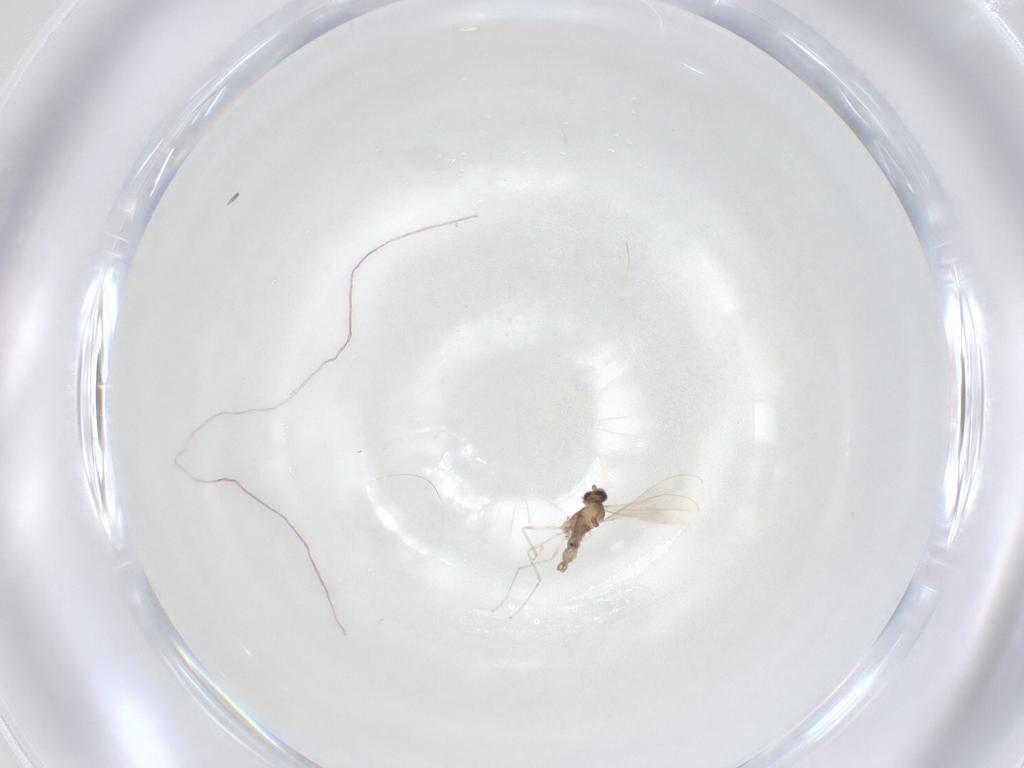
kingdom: Animalia
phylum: Arthropoda
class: Insecta
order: Diptera
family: Cecidomyiidae
